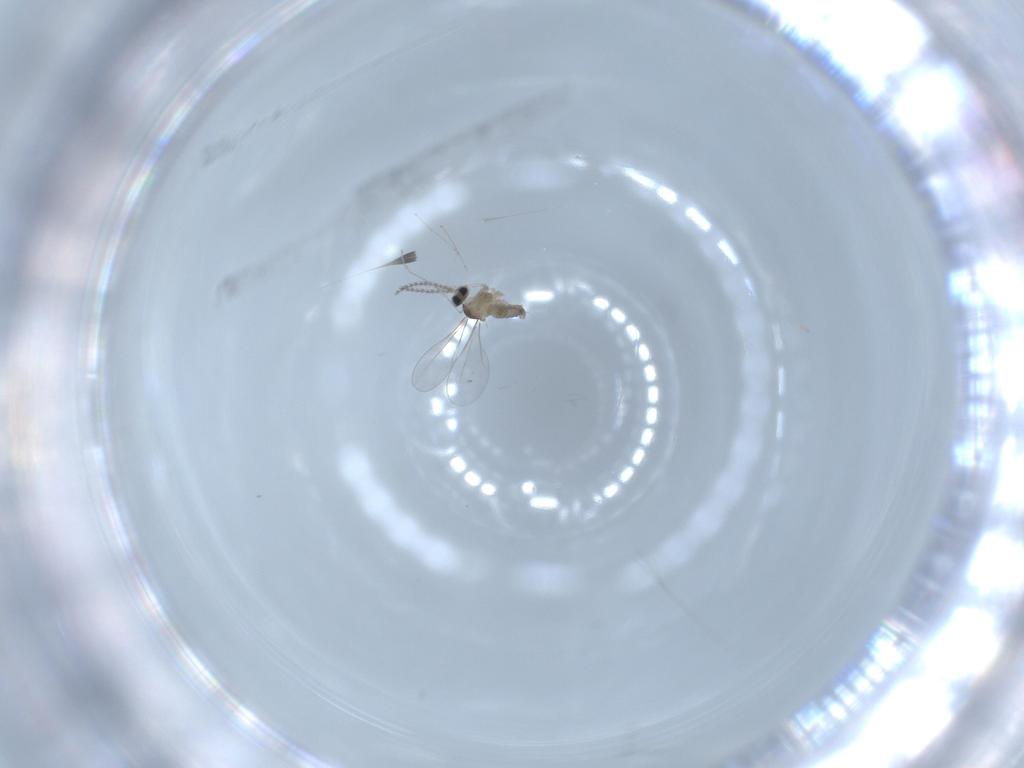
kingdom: Animalia
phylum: Arthropoda
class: Insecta
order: Diptera
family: Cecidomyiidae
